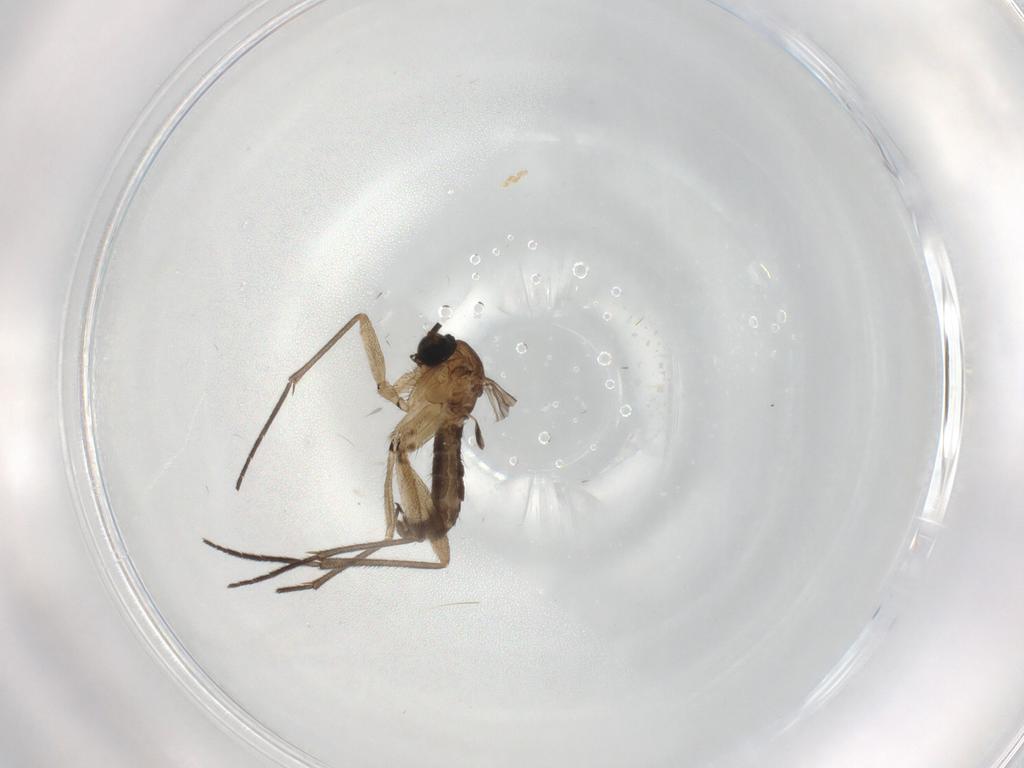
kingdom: Animalia
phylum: Arthropoda
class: Insecta
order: Diptera
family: Sciaridae
